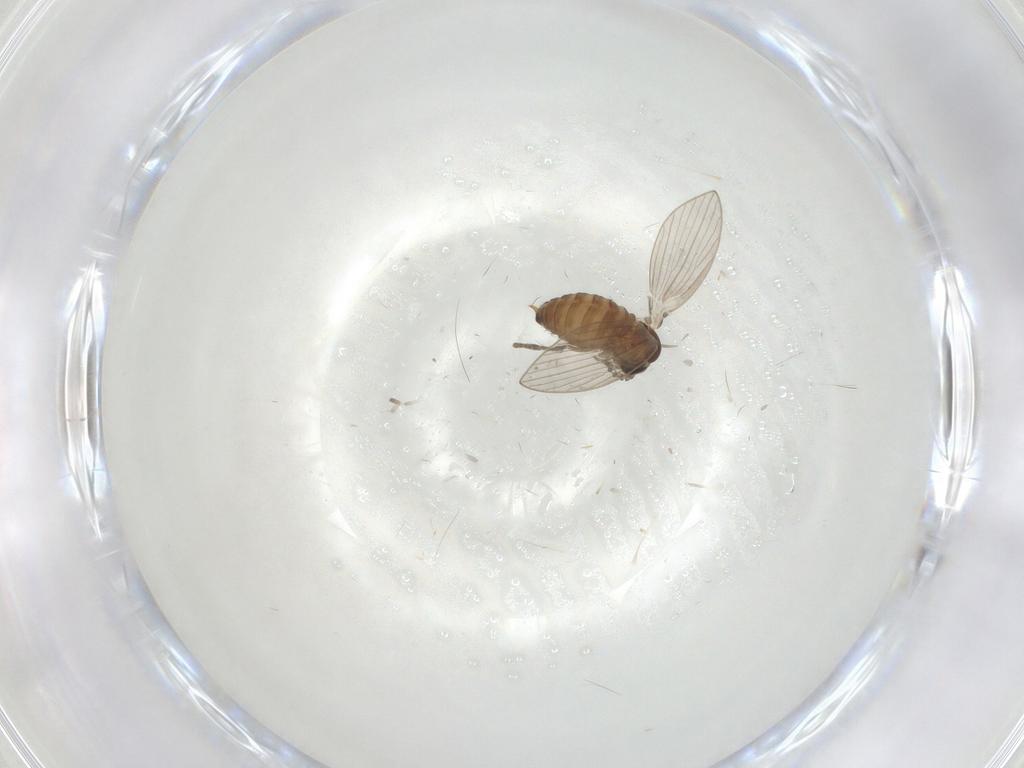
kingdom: Animalia
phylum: Arthropoda
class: Insecta
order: Diptera
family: Psychodidae
